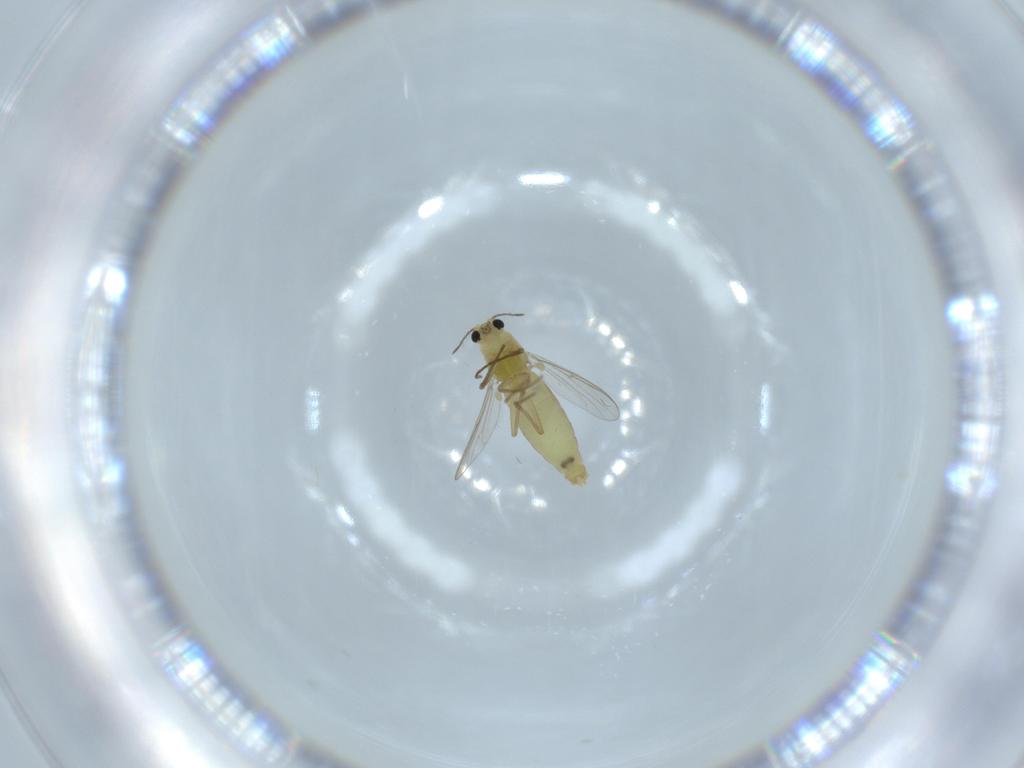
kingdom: Animalia
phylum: Arthropoda
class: Insecta
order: Diptera
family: Chironomidae
